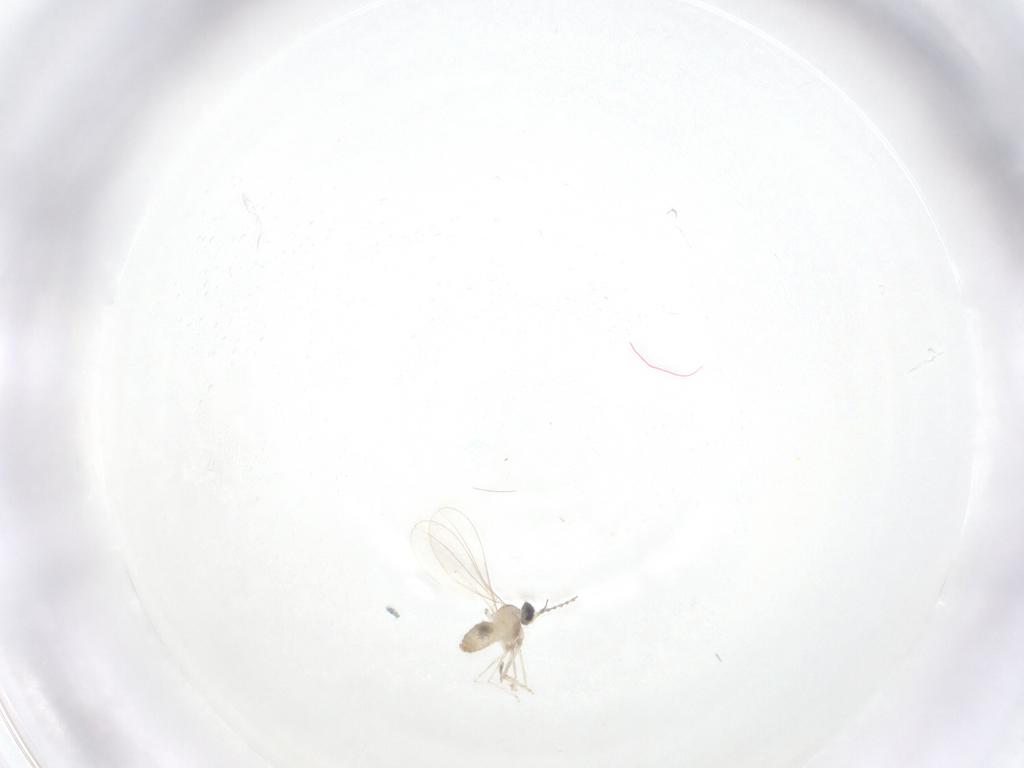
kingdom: Animalia
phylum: Arthropoda
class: Insecta
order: Diptera
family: Cecidomyiidae
